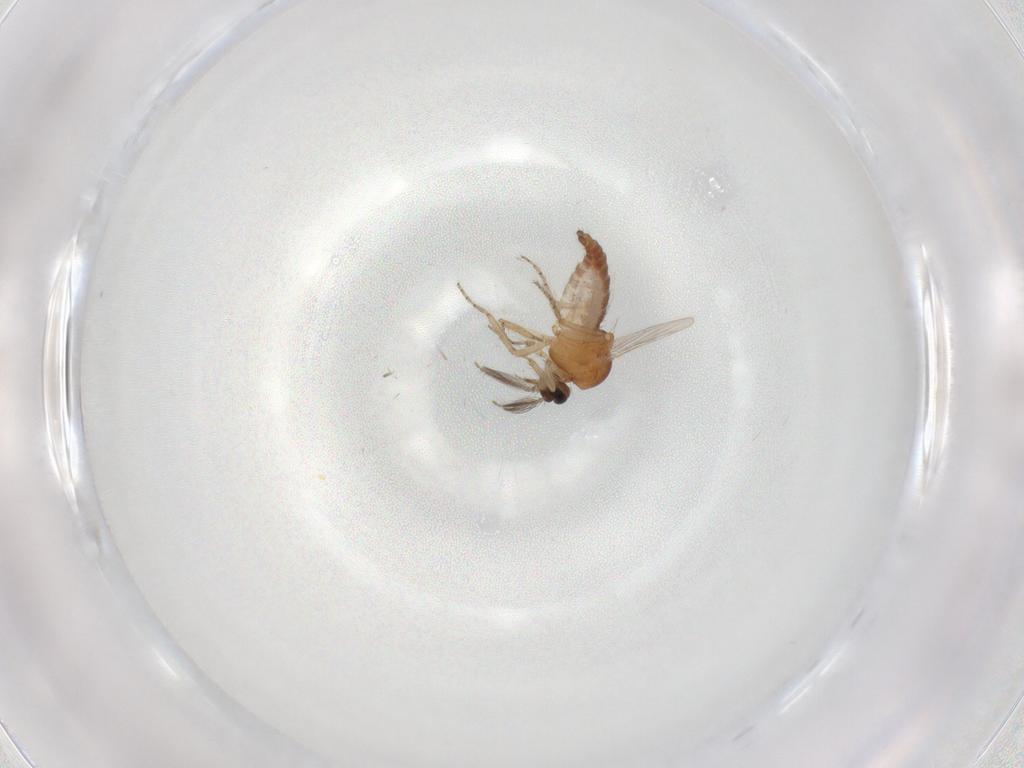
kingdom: Animalia
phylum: Arthropoda
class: Insecta
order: Diptera
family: Ceratopogonidae
